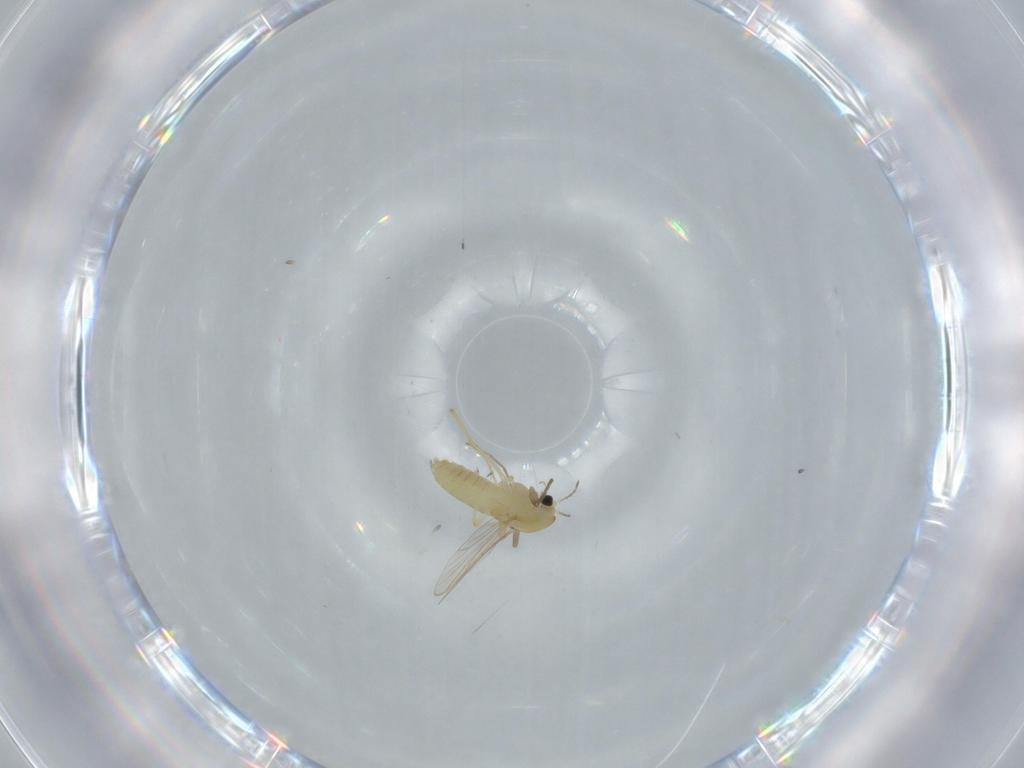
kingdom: Animalia
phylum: Arthropoda
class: Insecta
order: Diptera
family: Chironomidae
